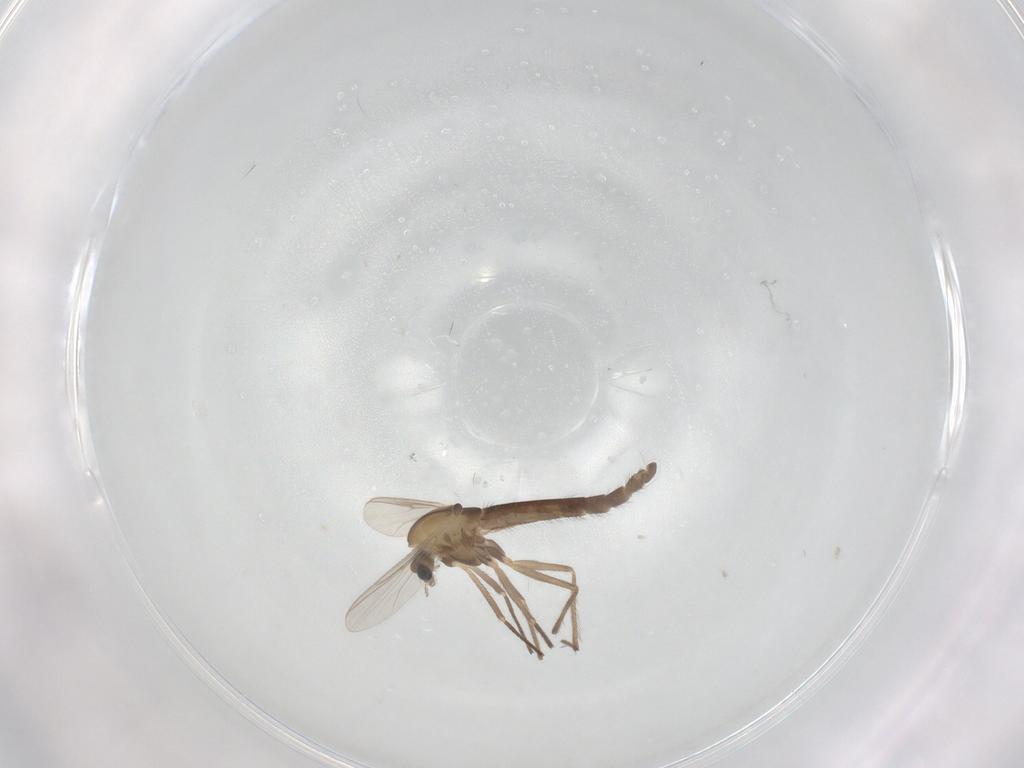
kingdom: Animalia
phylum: Arthropoda
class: Insecta
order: Diptera
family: Chironomidae
